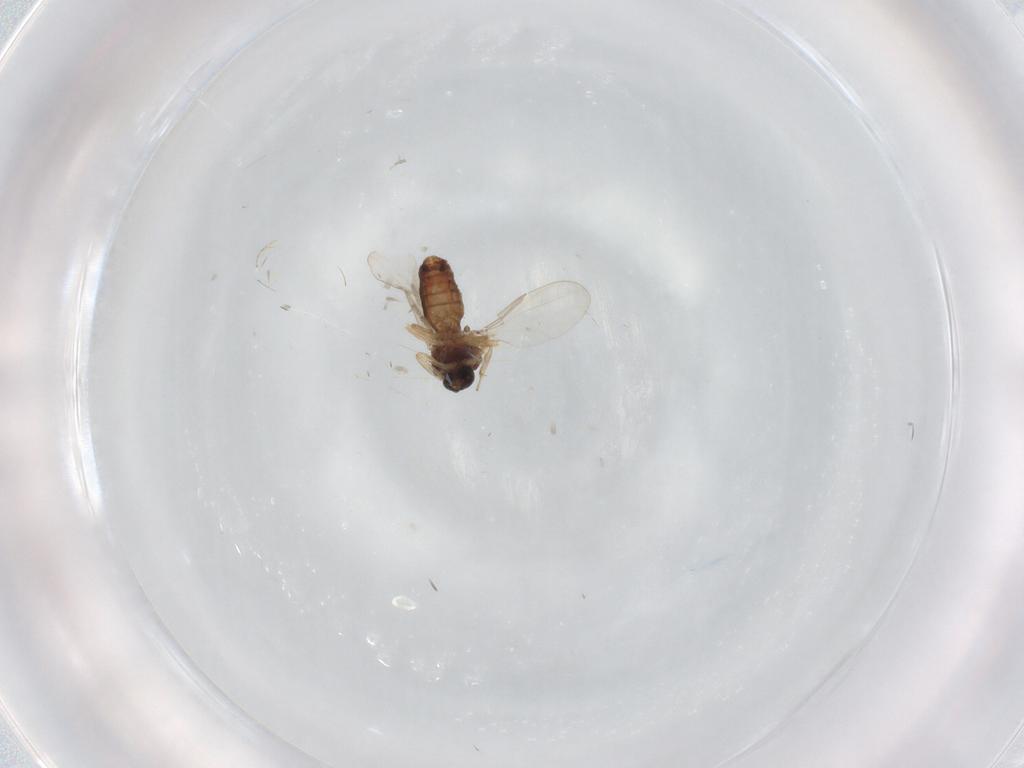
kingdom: Animalia
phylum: Arthropoda
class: Insecta
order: Diptera
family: Ceratopogonidae
